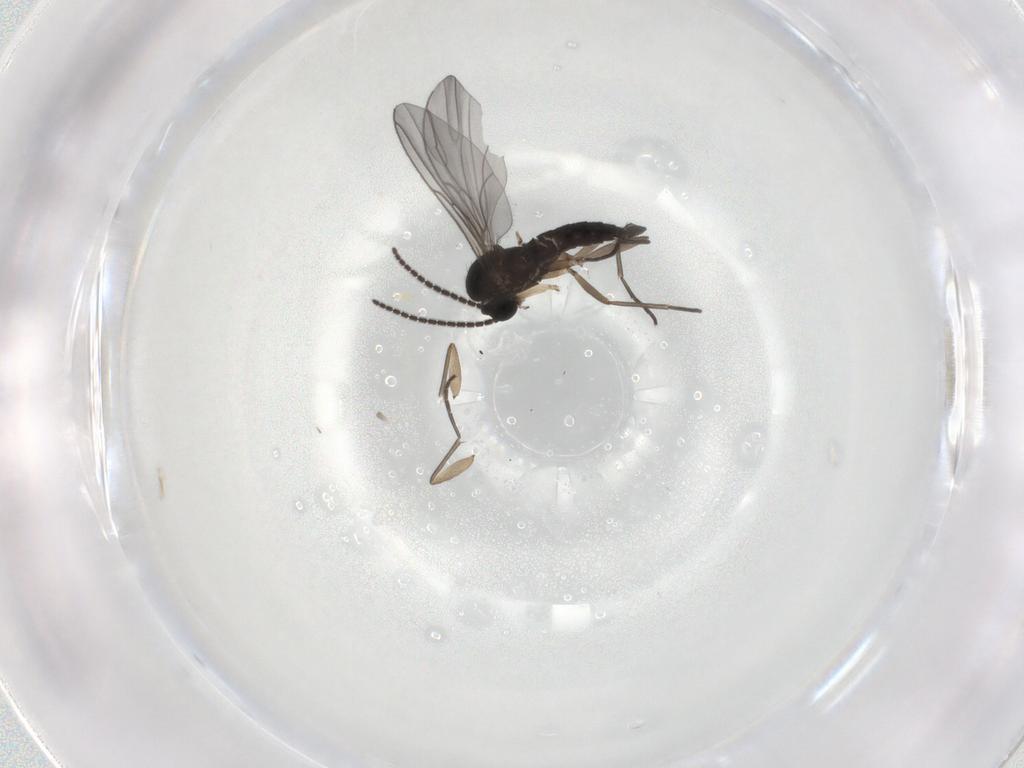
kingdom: Animalia
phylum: Arthropoda
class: Insecta
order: Diptera
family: Sciaridae
